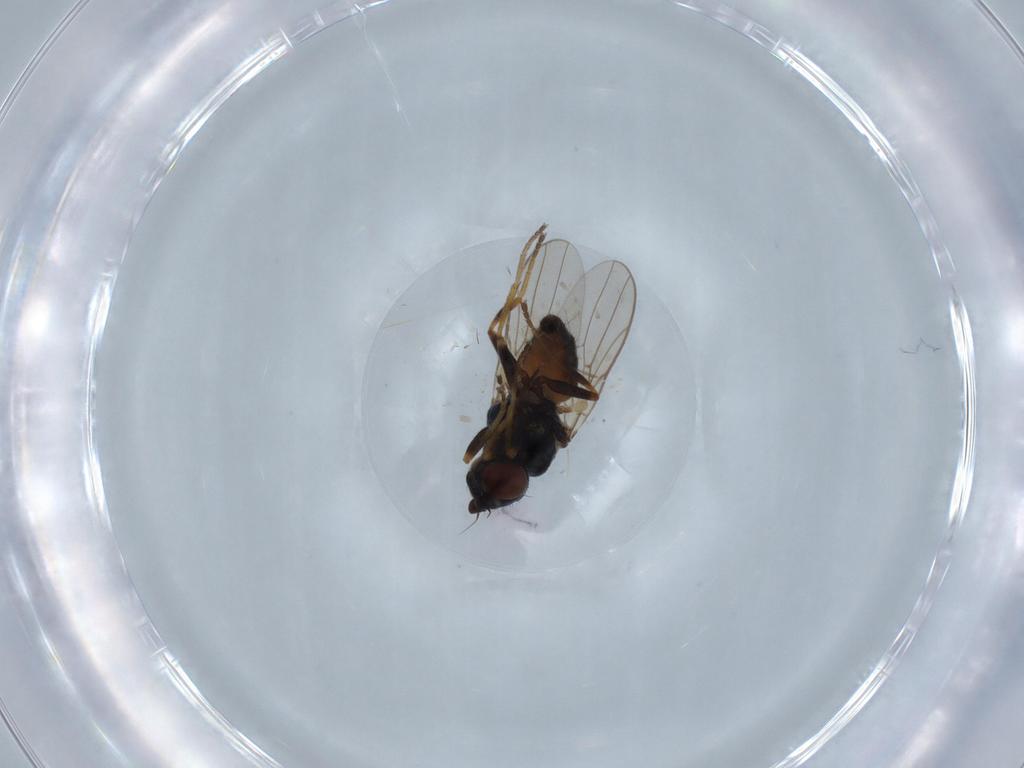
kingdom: Animalia
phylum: Arthropoda
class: Insecta
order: Diptera
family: Chloropidae
